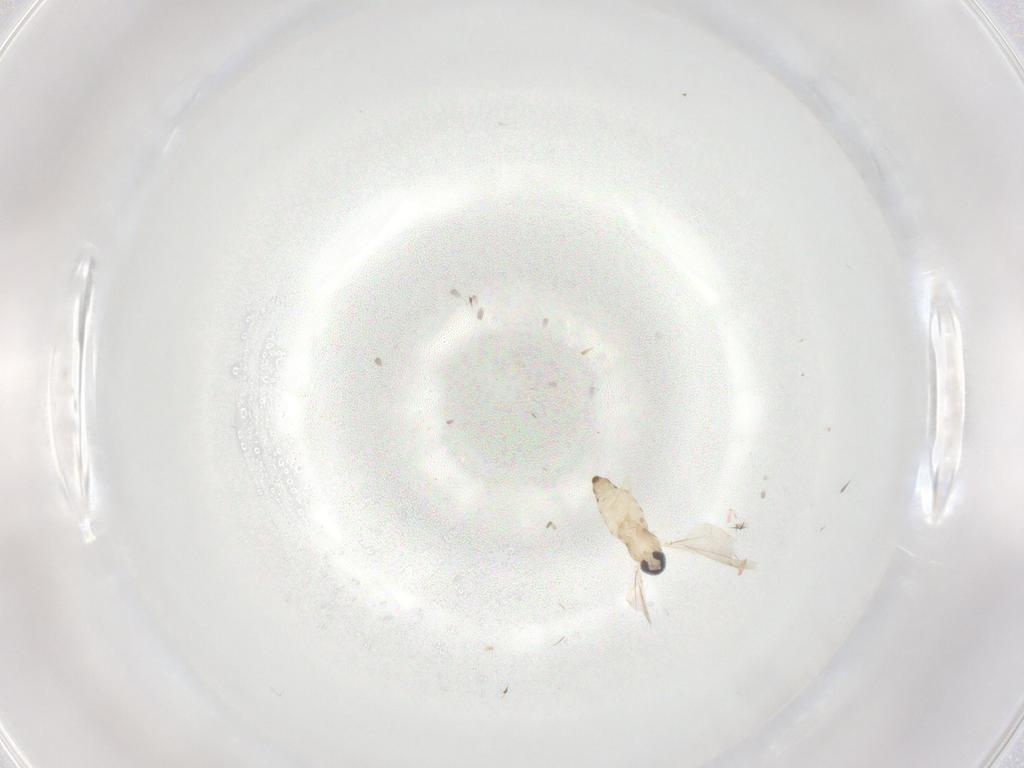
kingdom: Animalia
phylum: Arthropoda
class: Insecta
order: Diptera
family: Cecidomyiidae
